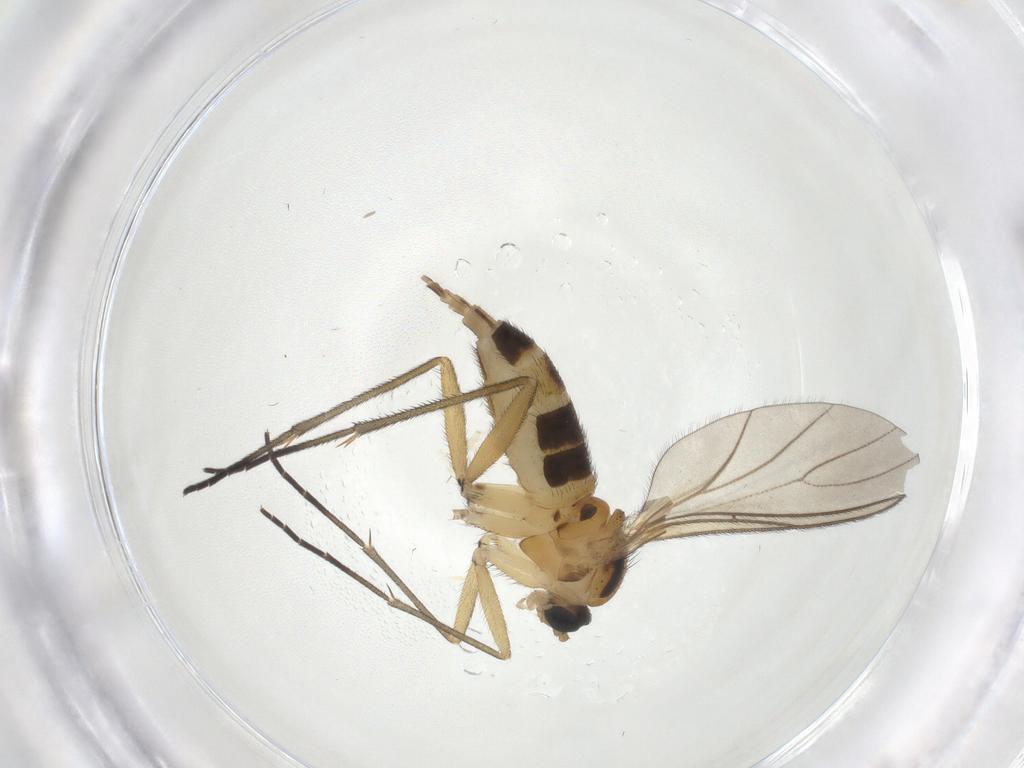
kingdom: Animalia
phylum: Arthropoda
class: Insecta
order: Diptera
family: Sciaridae
